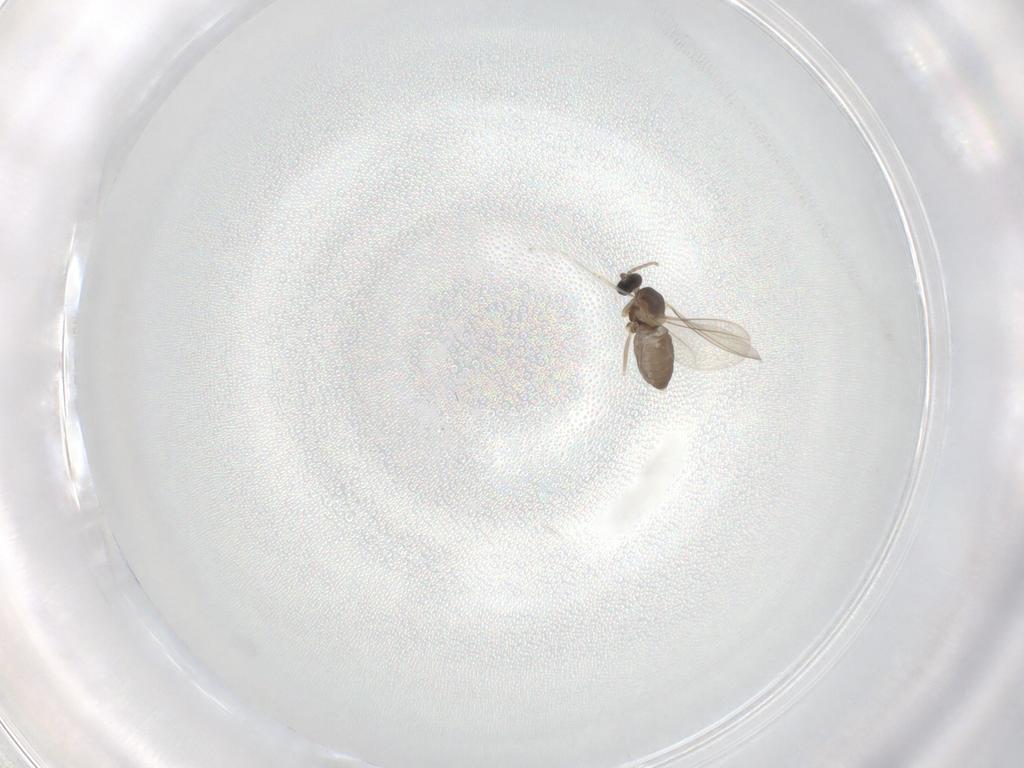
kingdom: Animalia
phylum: Arthropoda
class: Insecta
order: Diptera
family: Cecidomyiidae
